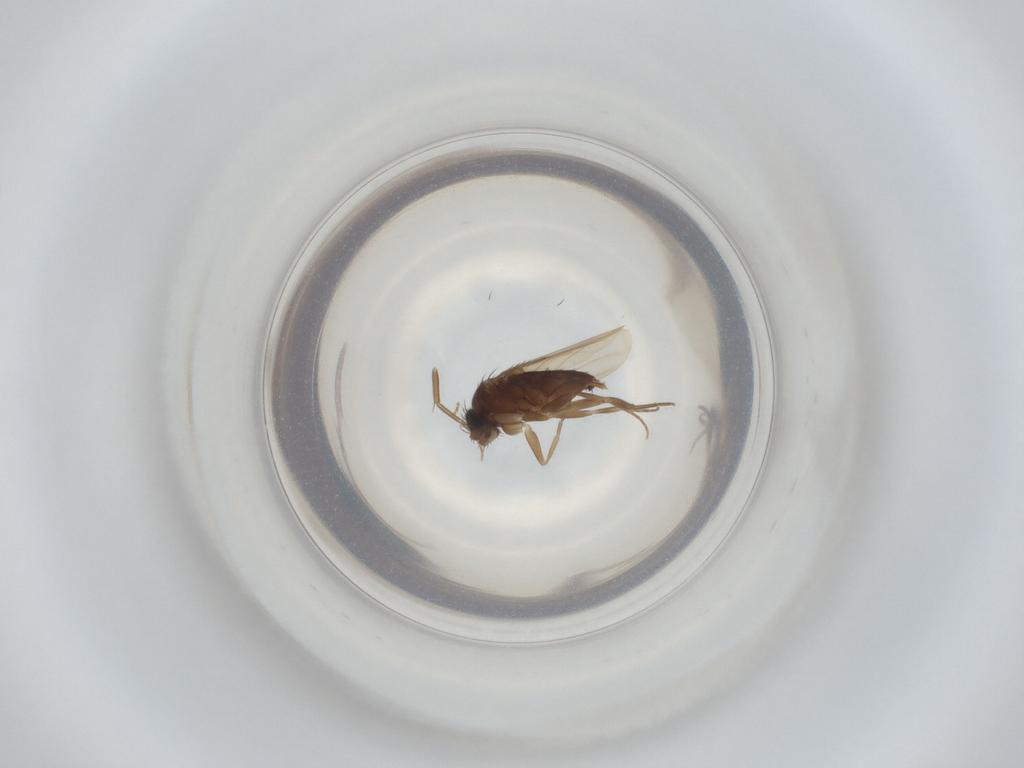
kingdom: Animalia
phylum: Arthropoda
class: Insecta
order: Diptera
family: Phoridae
